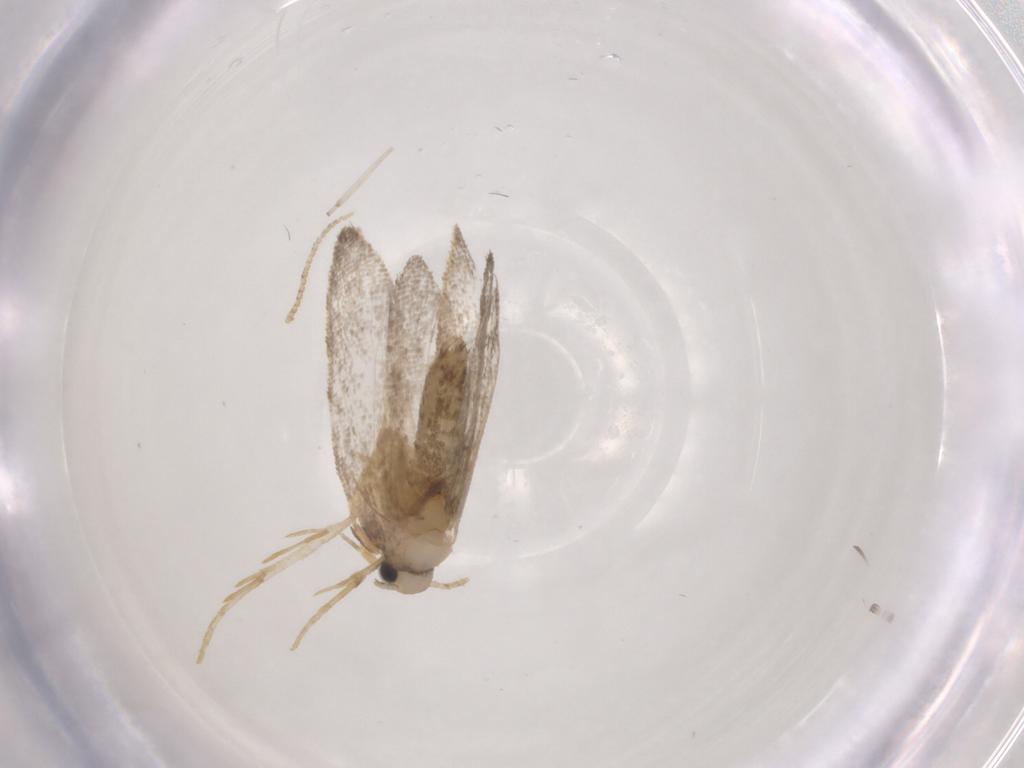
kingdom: Animalia
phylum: Arthropoda
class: Insecta
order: Lepidoptera
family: Psychidae
